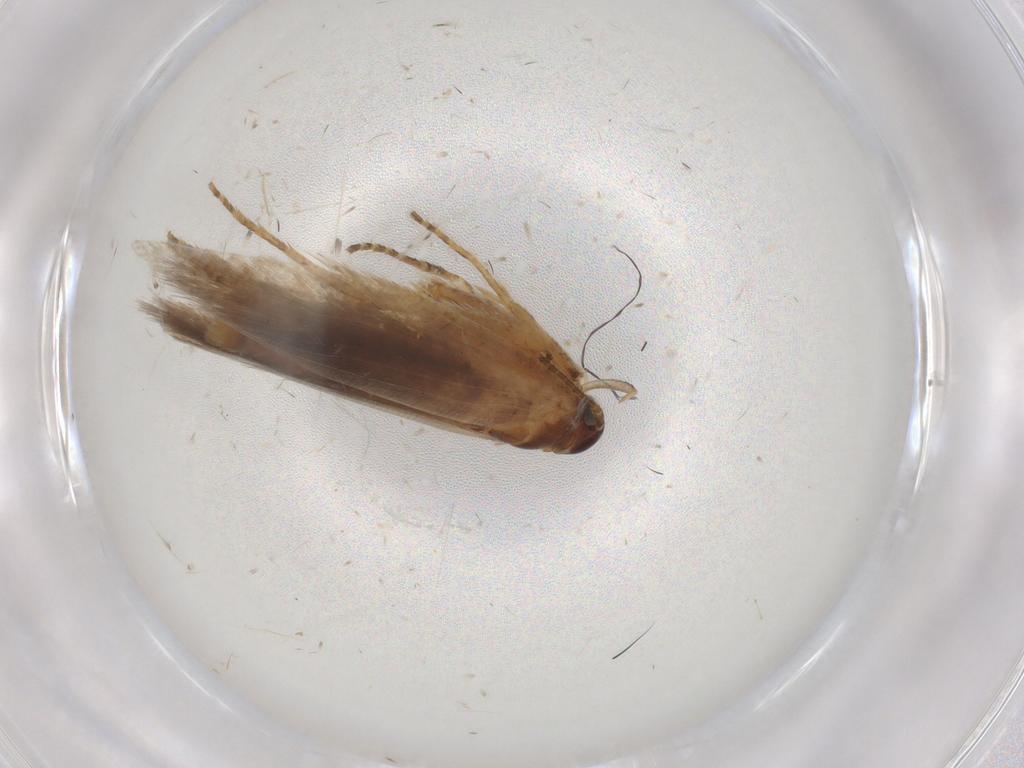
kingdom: Animalia
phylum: Arthropoda
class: Insecta
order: Lepidoptera
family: Gelechiidae
